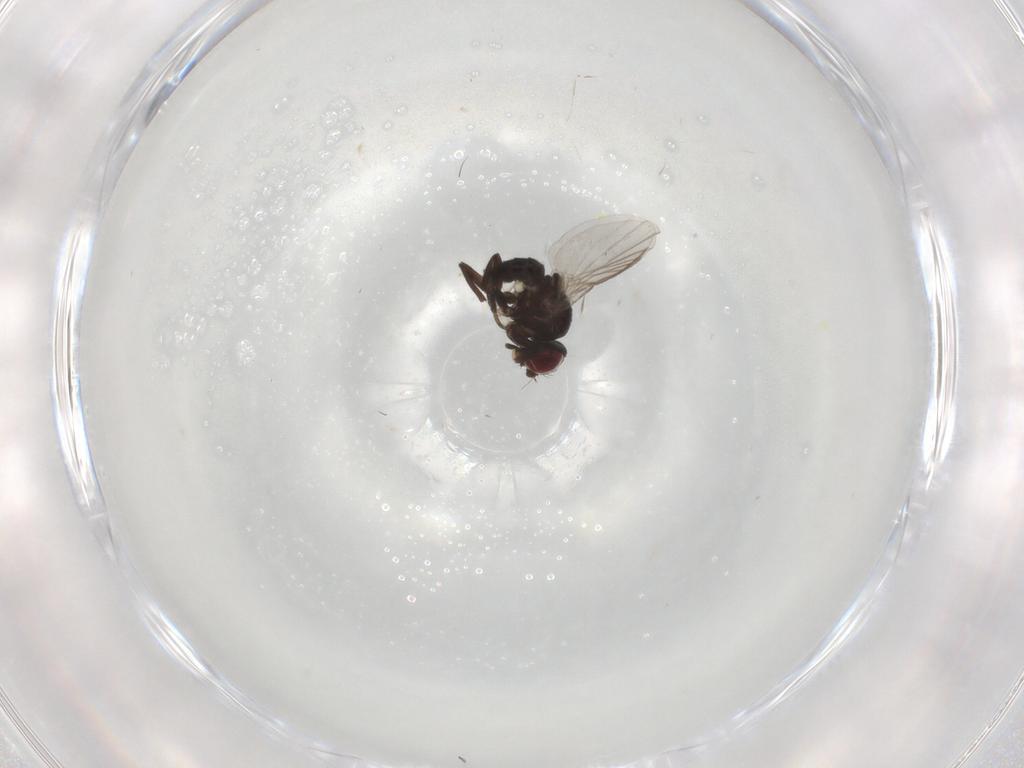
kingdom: Animalia
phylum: Arthropoda
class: Insecta
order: Diptera
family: Agromyzidae
